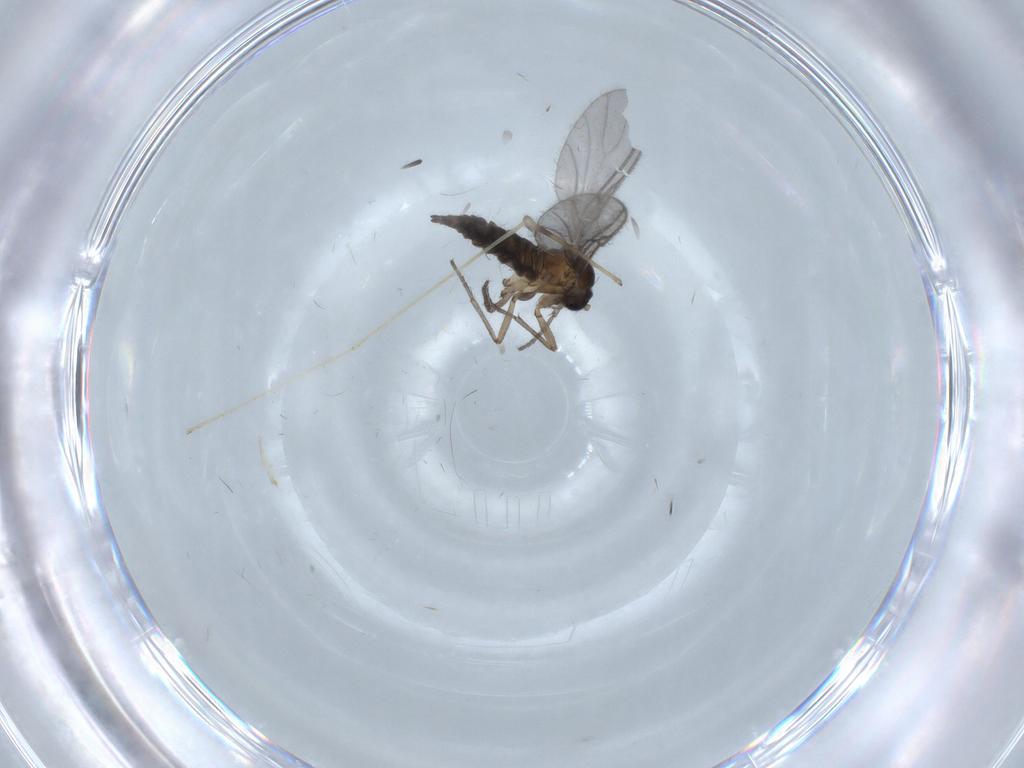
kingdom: Animalia
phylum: Arthropoda
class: Insecta
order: Diptera
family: Limoniidae
